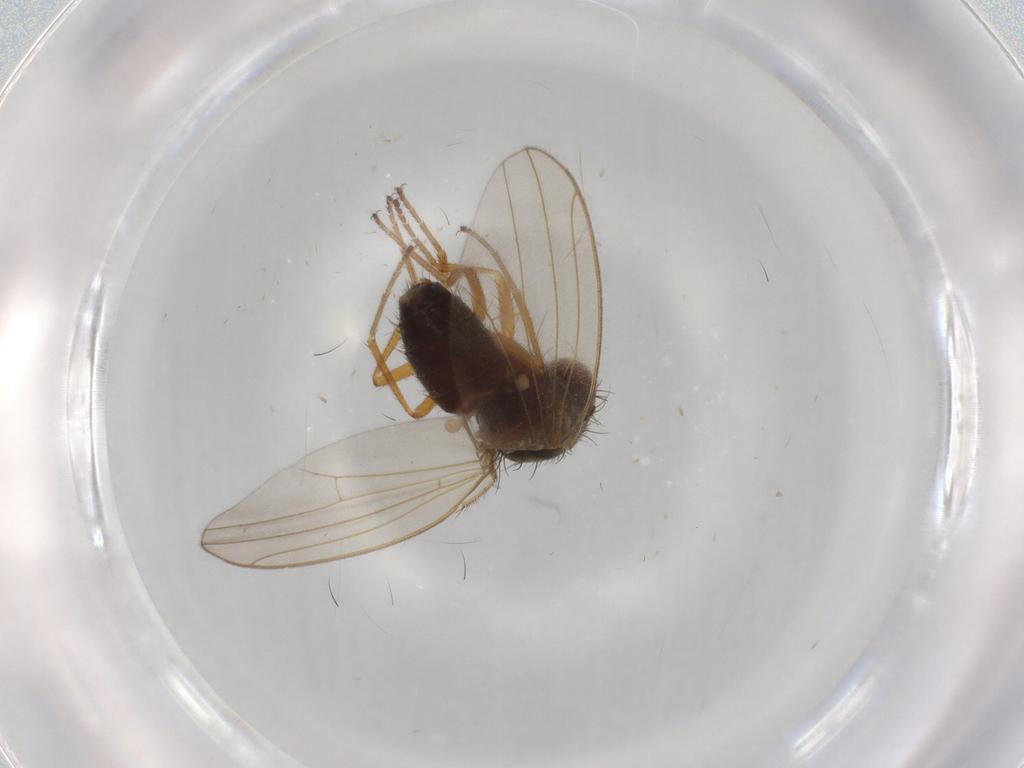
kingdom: Animalia
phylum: Arthropoda
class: Insecta
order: Diptera
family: Drosophilidae
